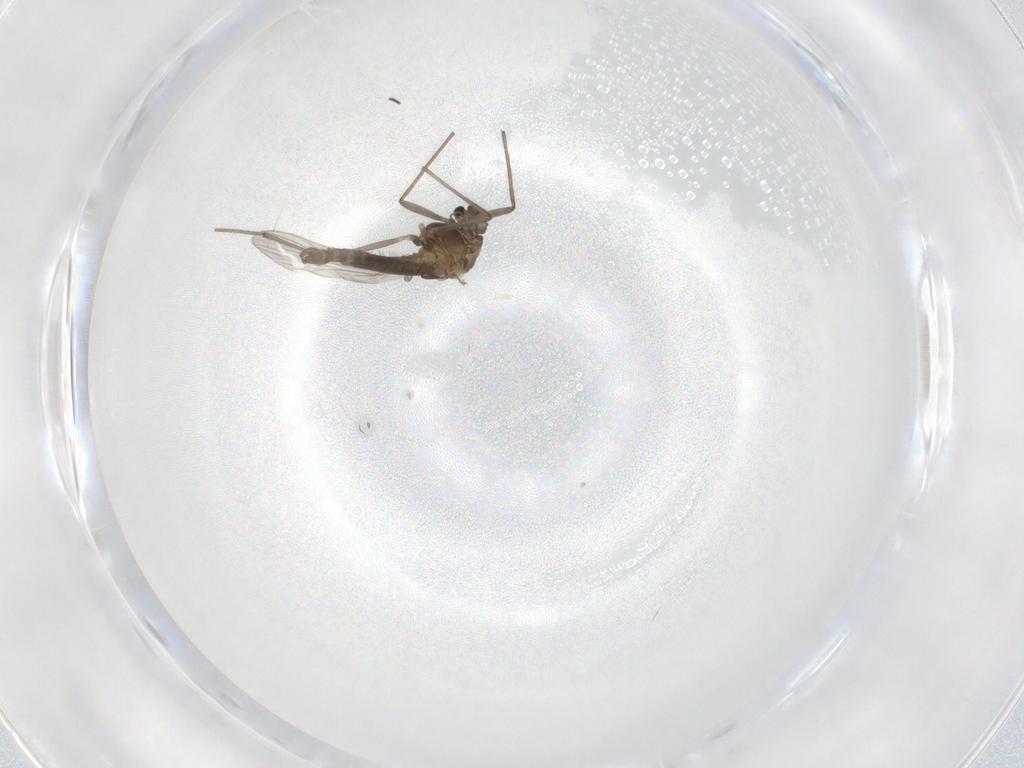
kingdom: Animalia
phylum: Arthropoda
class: Insecta
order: Diptera
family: Chironomidae
